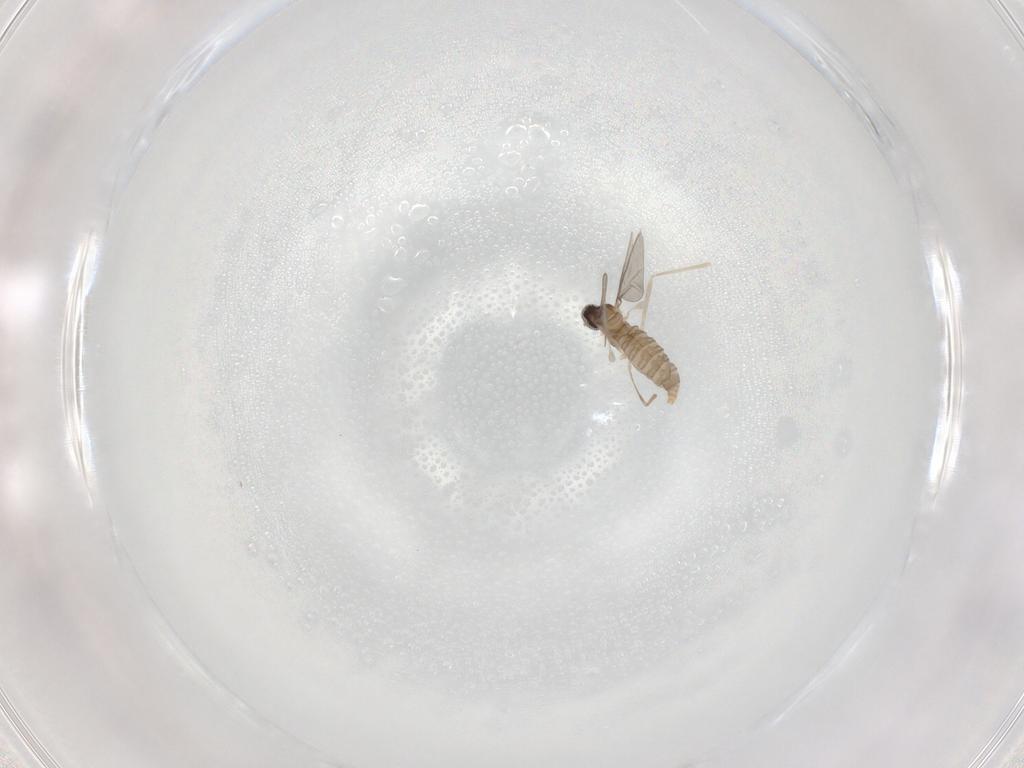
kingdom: Animalia
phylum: Arthropoda
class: Insecta
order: Diptera
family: Cecidomyiidae
